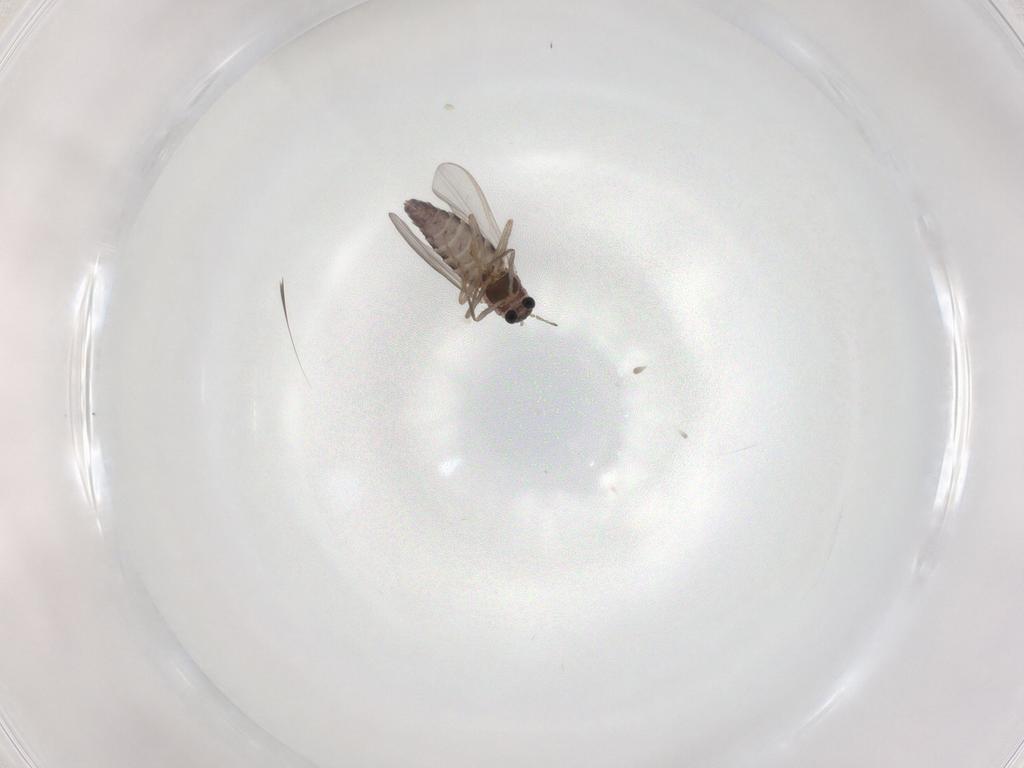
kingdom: Animalia
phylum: Arthropoda
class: Insecta
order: Diptera
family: Chironomidae
